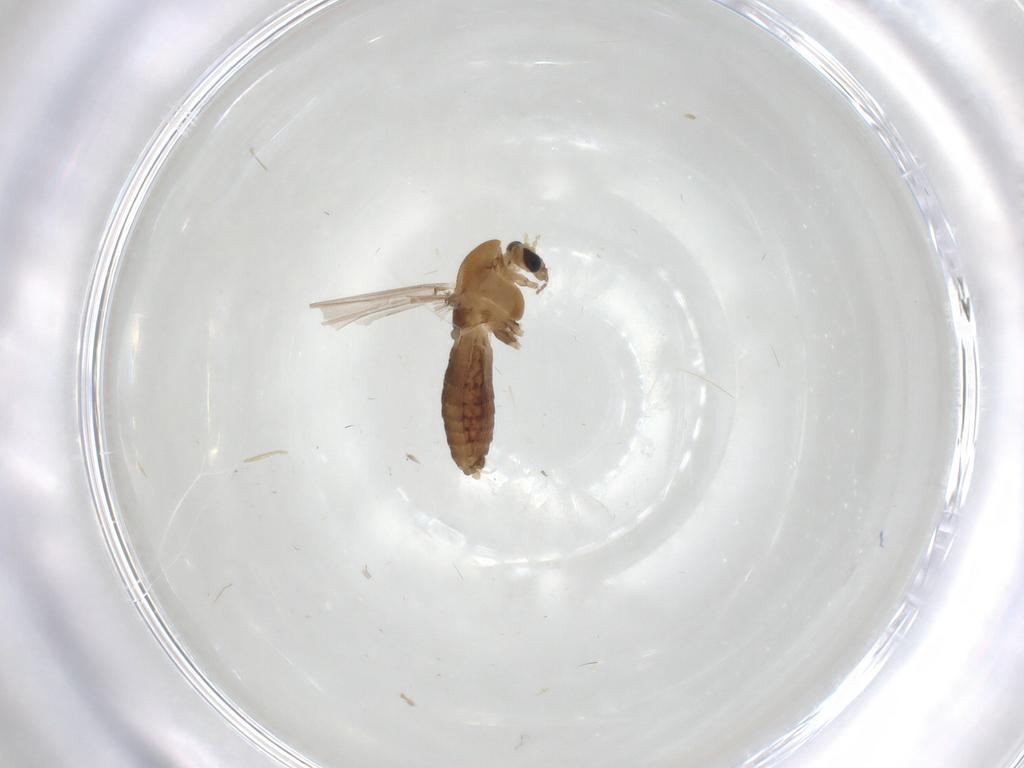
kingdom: Animalia
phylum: Arthropoda
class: Insecta
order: Diptera
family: Chironomidae
